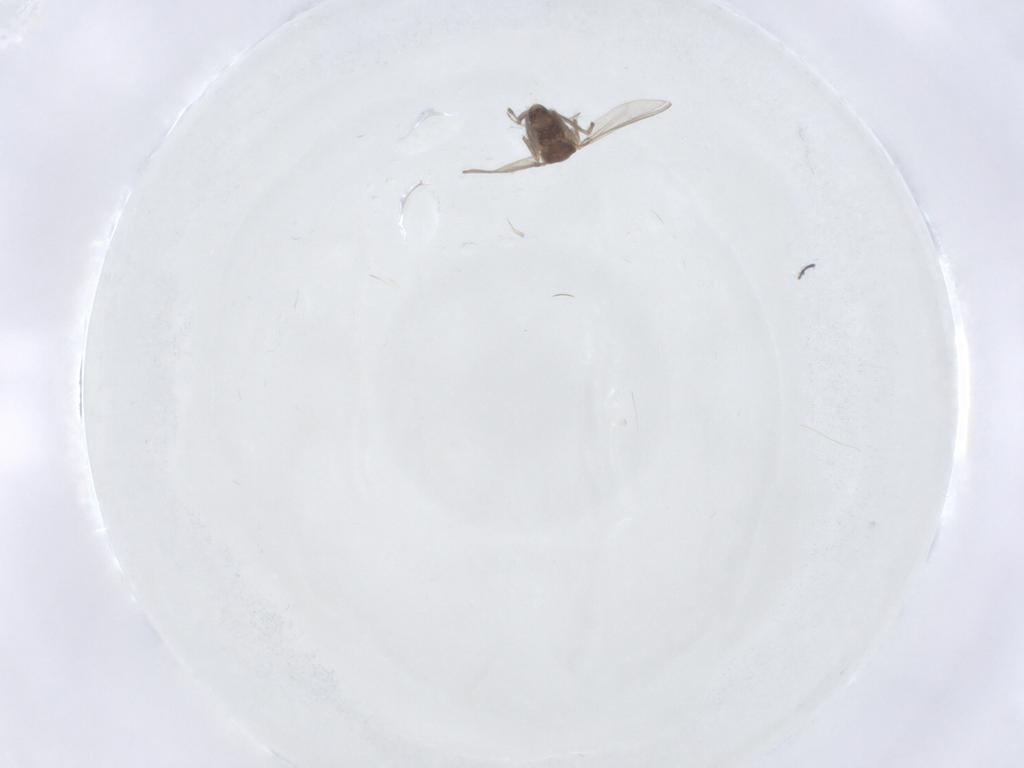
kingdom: Animalia
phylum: Arthropoda
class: Insecta
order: Diptera
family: Chironomidae
